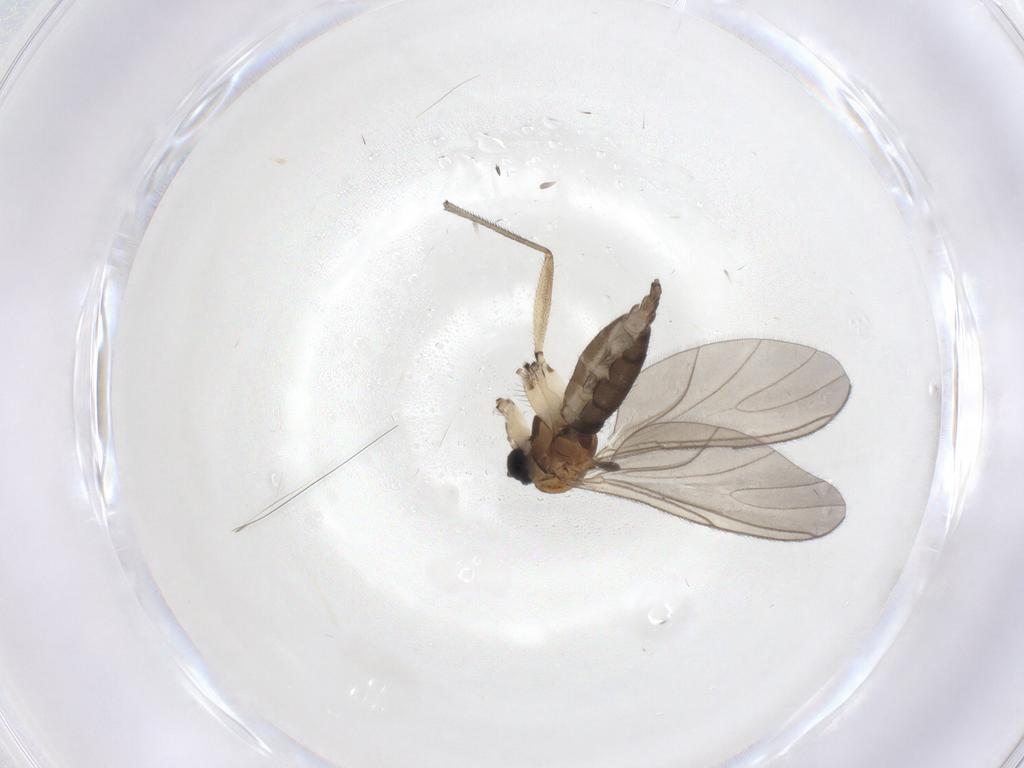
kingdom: Animalia
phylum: Arthropoda
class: Insecta
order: Diptera
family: Sciaridae
